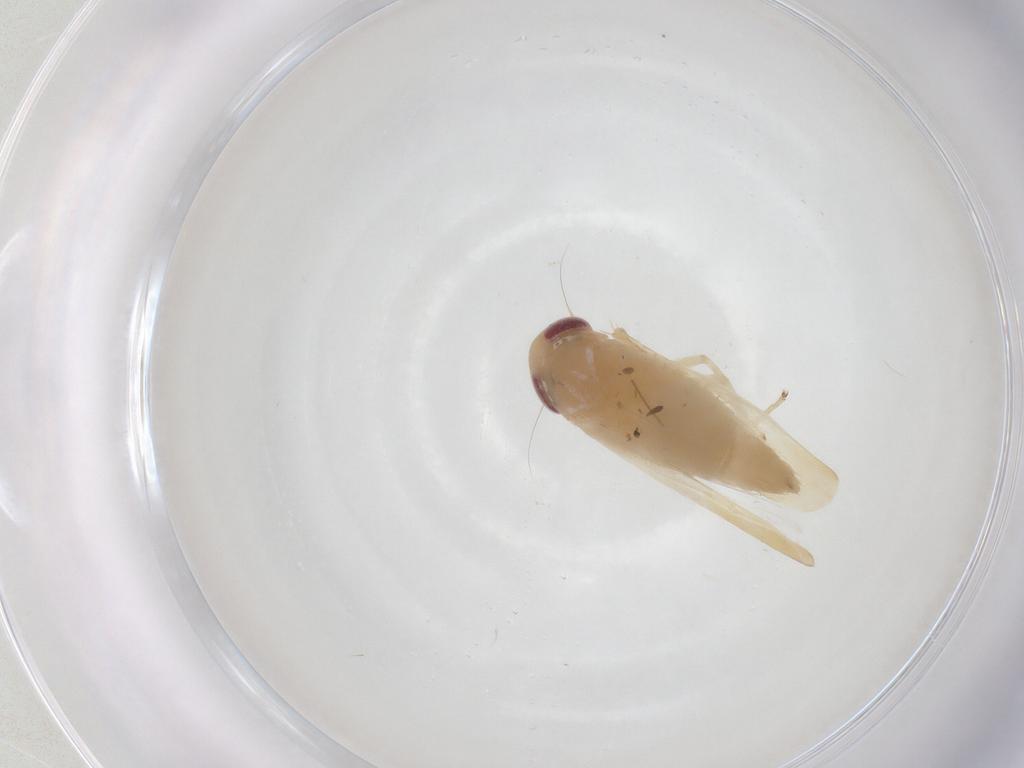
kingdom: Animalia
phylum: Arthropoda
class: Insecta
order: Hemiptera
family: Cicadellidae
